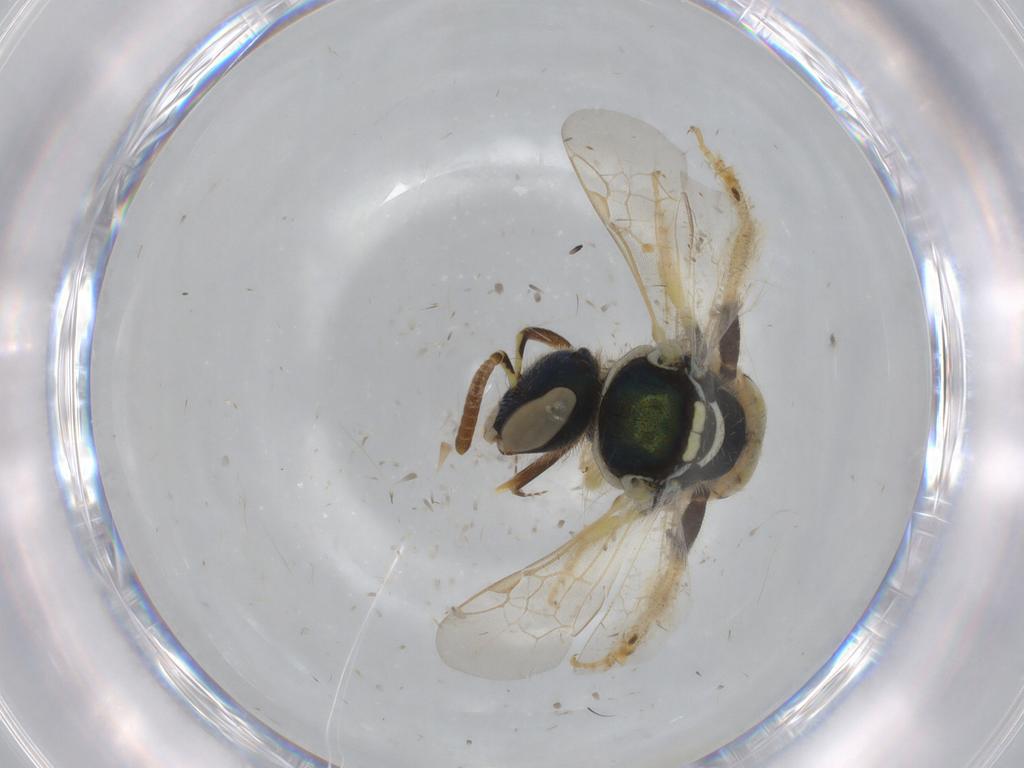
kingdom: Animalia
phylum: Arthropoda
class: Insecta
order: Hymenoptera
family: Halictidae
